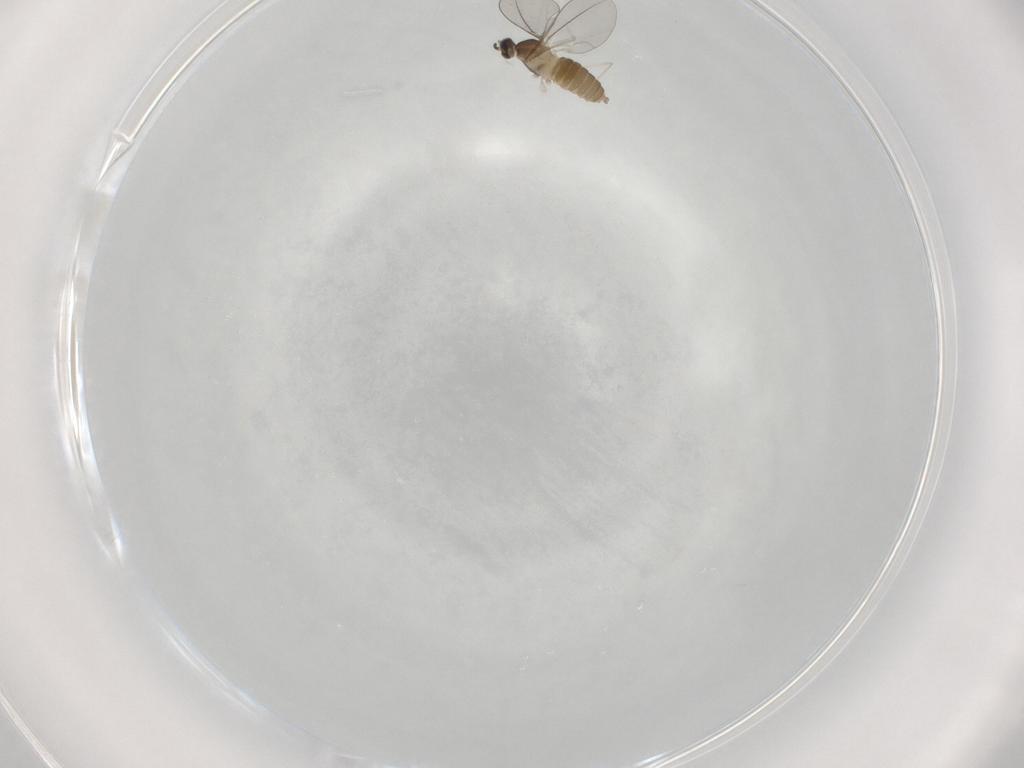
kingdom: Animalia
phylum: Arthropoda
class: Insecta
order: Diptera
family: Cecidomyiidae
